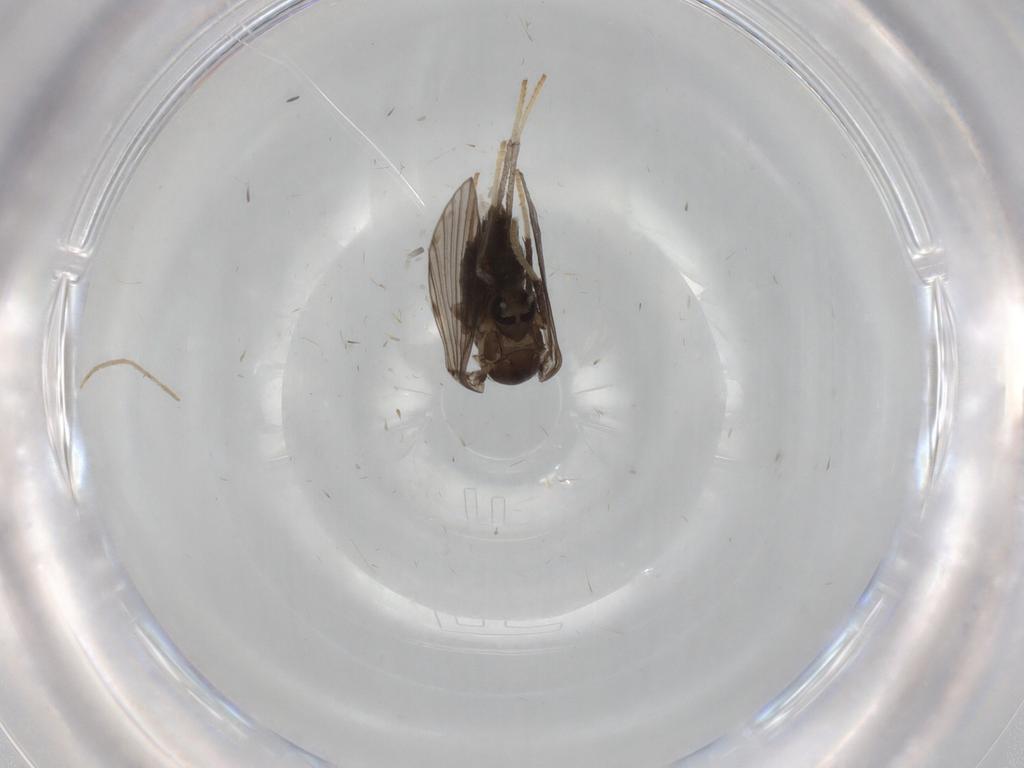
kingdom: Animalia
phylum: Arthropoda
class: Insecta
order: Diptera
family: Psychodidae
